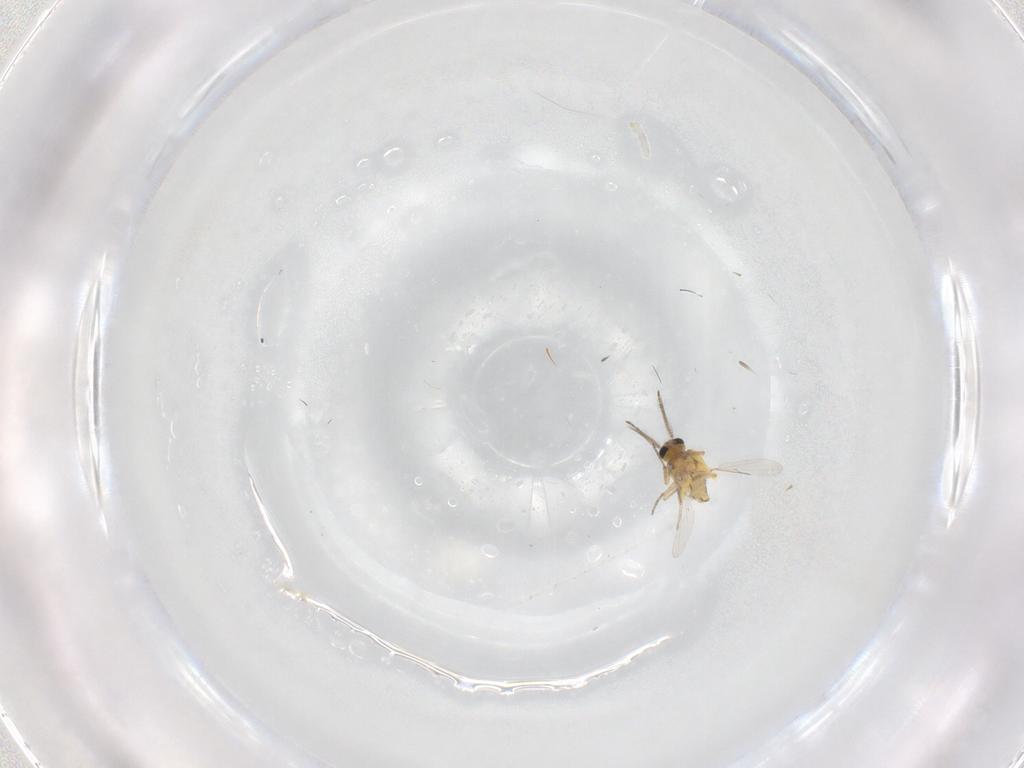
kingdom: Animalia
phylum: Arthropoda
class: Insecta
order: Diptera
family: Ceratopogonidae
